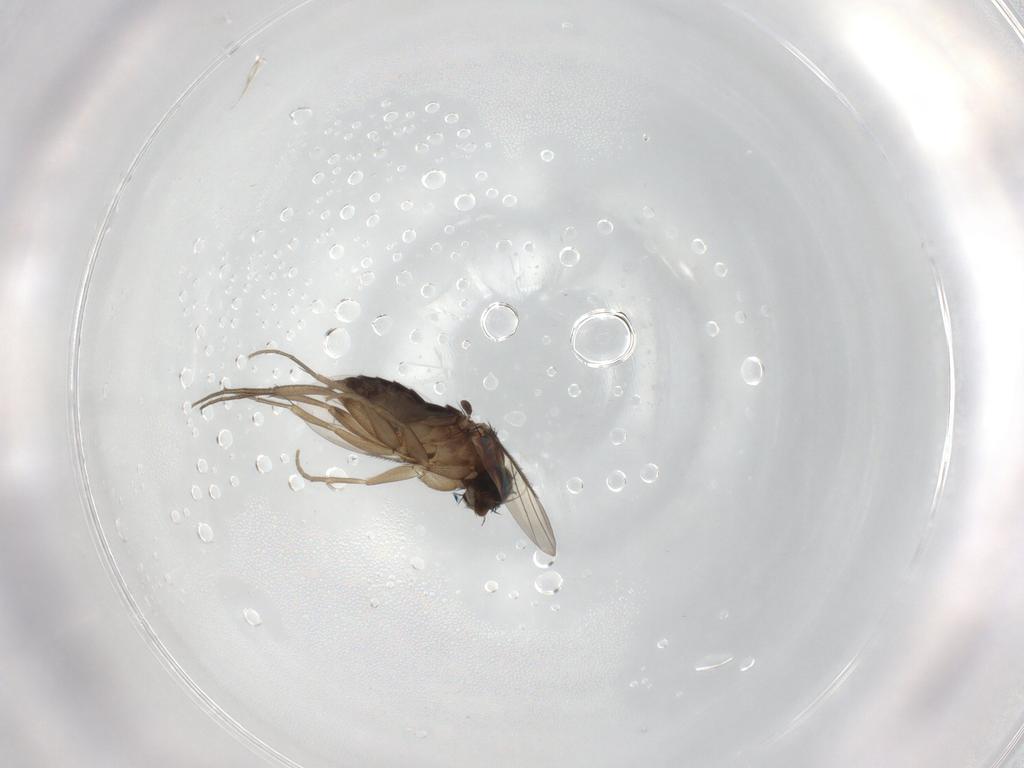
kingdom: Animalia
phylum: Arthropoda
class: Insecta
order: Diptera
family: Phoridae
